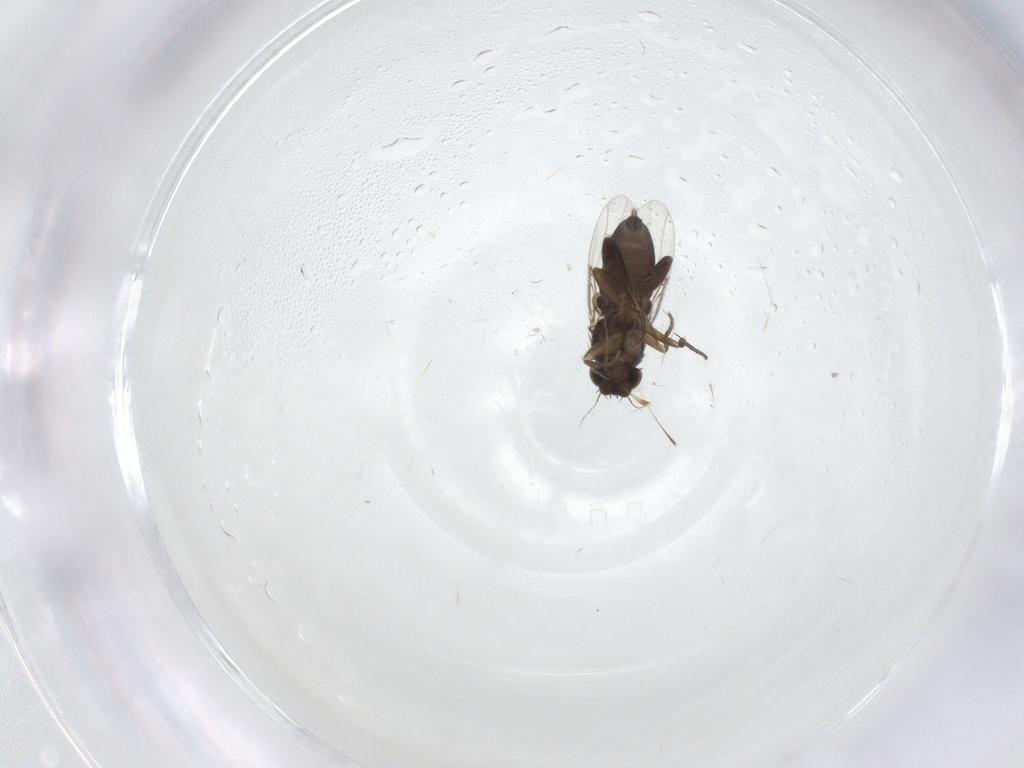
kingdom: Animalia
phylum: Arthropoda
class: Insecta
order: Diptera
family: Phoridae
